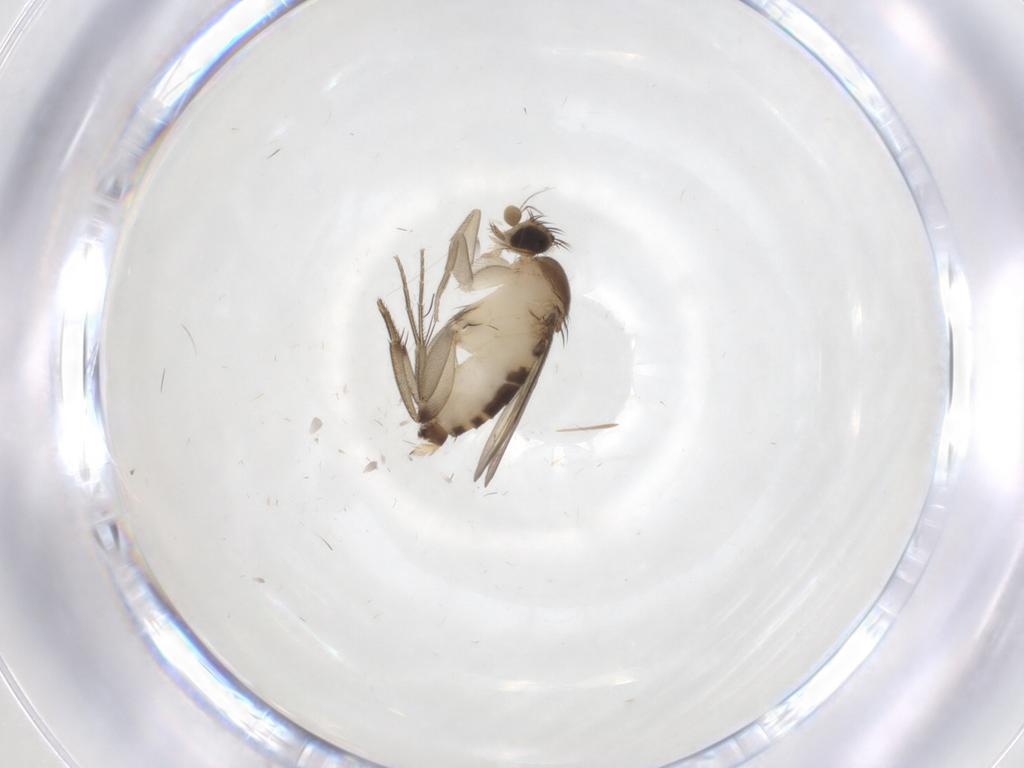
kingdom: Animalia
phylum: Arthropoda
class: Insecta
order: Diptera
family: Phoridae
